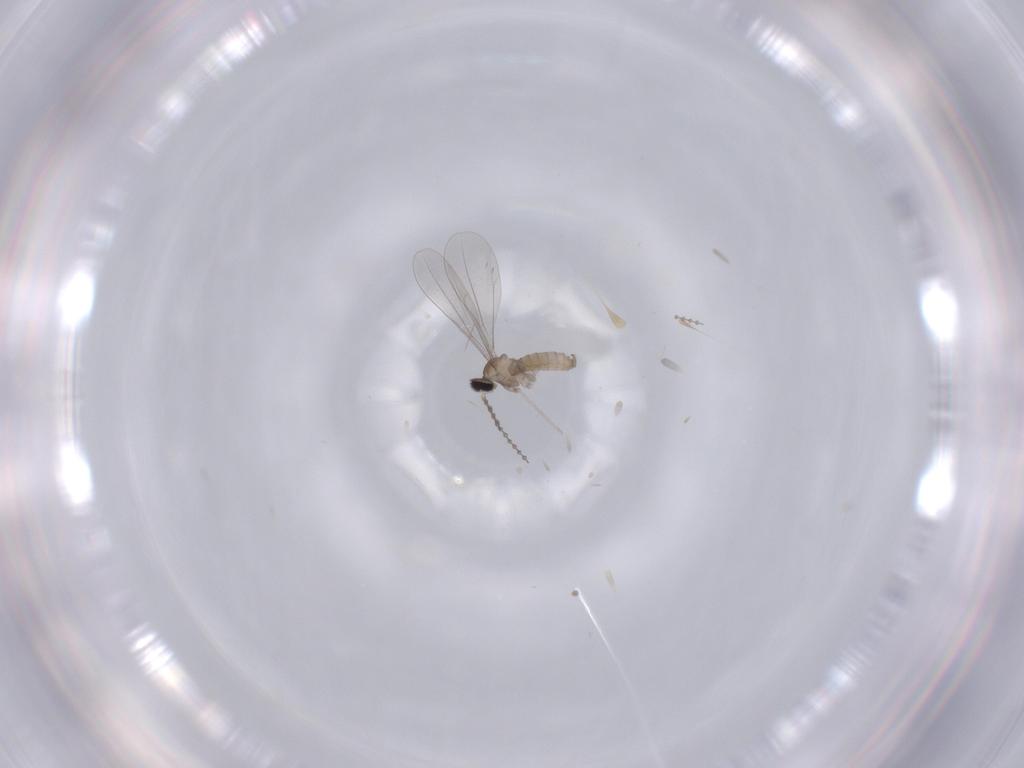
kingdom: Animalia
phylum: Arthropoda
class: Insecta
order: Diptera
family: Cecidomyiidae
